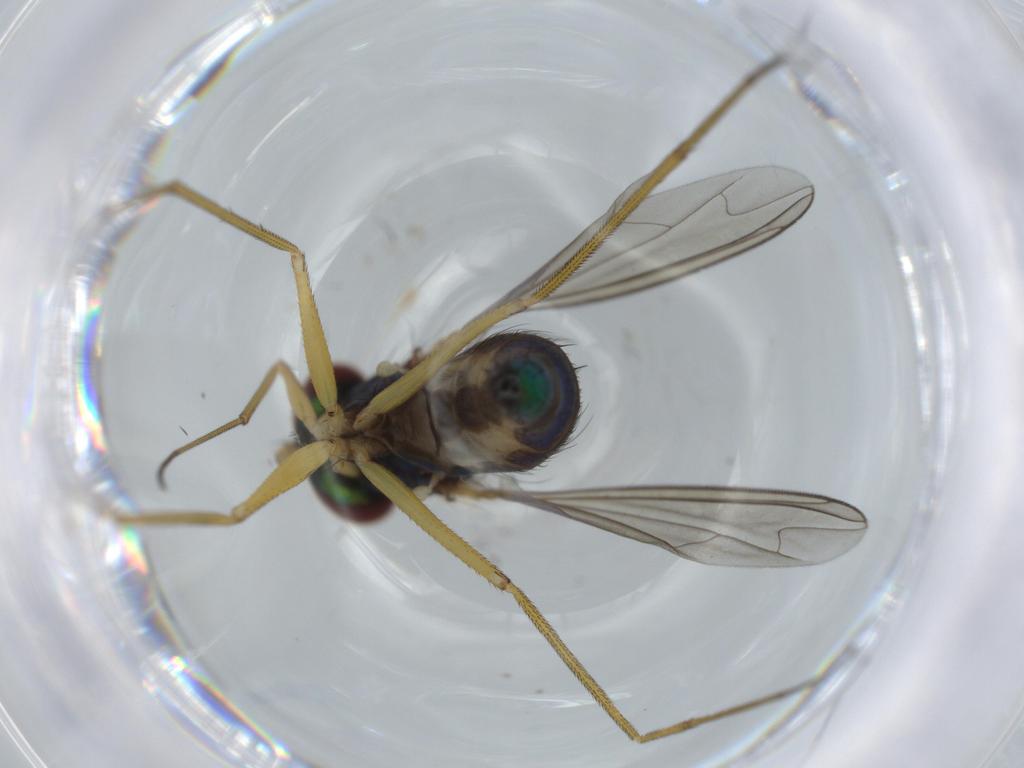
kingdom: Animalia
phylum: Arthropoda
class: Insecta
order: Diptera
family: Dolichopodidae
